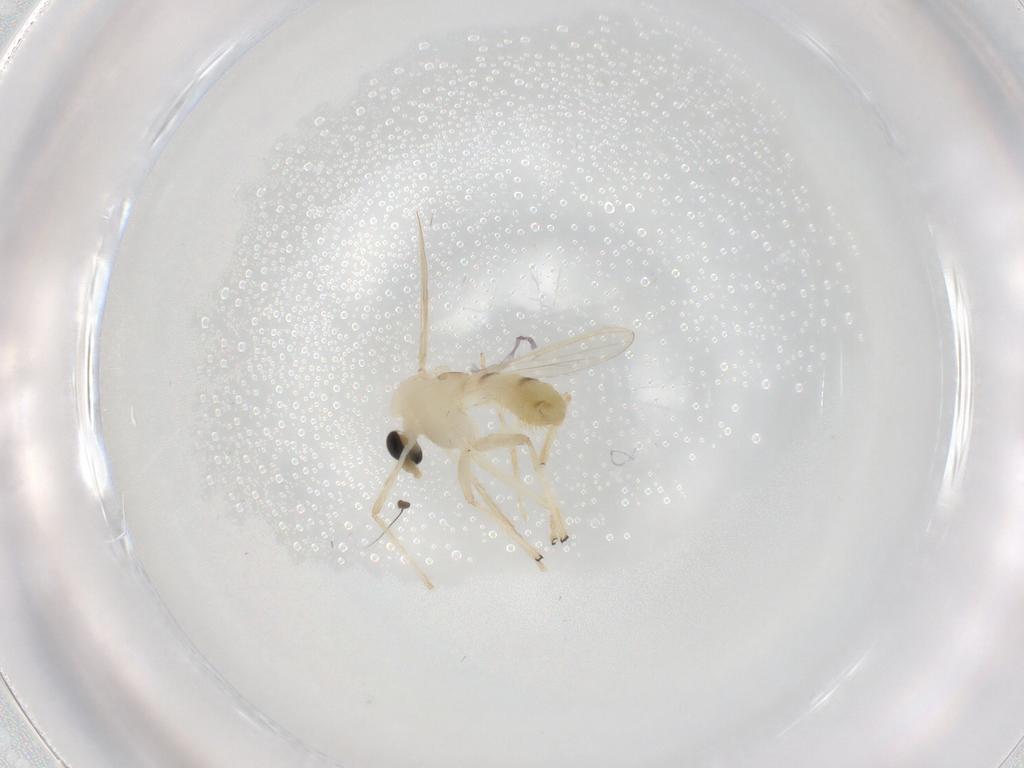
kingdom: Animalia
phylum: Arthropoda
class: Insecta
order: Diptera
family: Chironomidae
